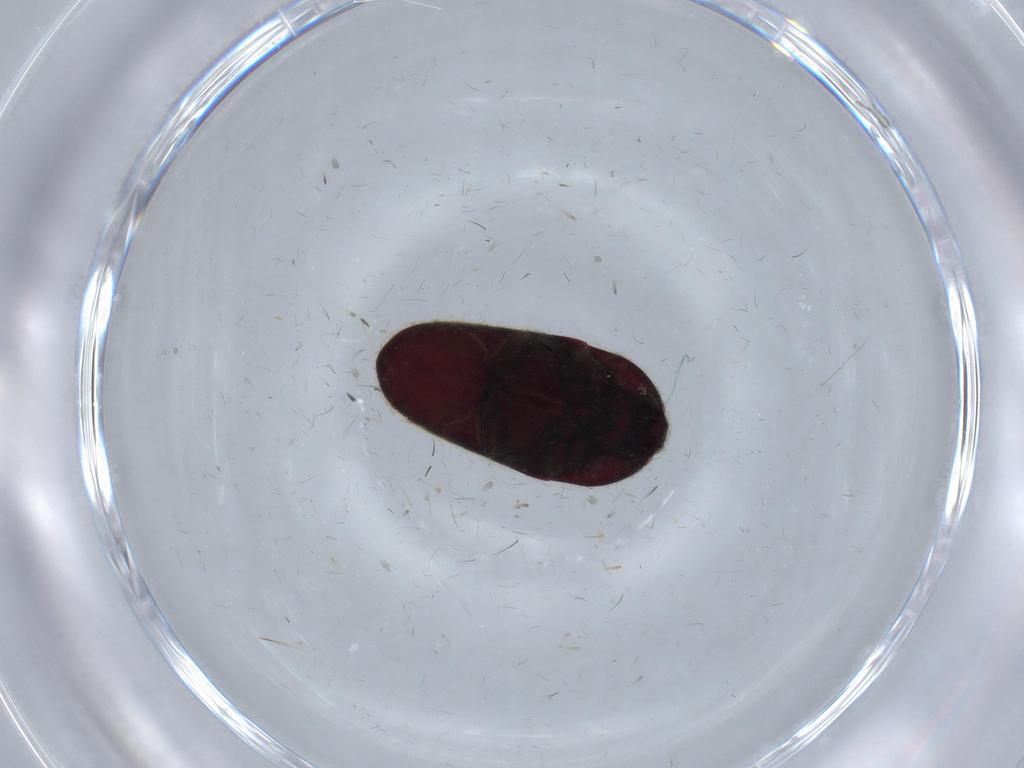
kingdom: Animalia
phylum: Arthropoda
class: Insecta
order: Coleoptera
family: Throscidae
